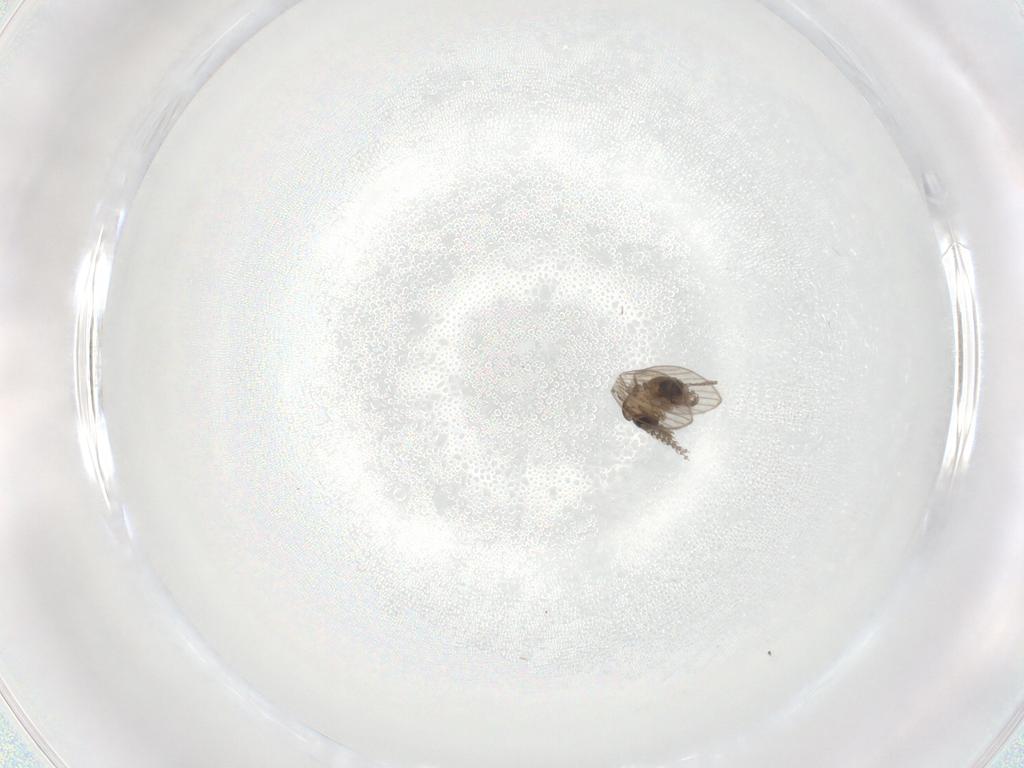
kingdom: Animalia
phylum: Arthropoda
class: Insecta
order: Diptera
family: Psychodidae
